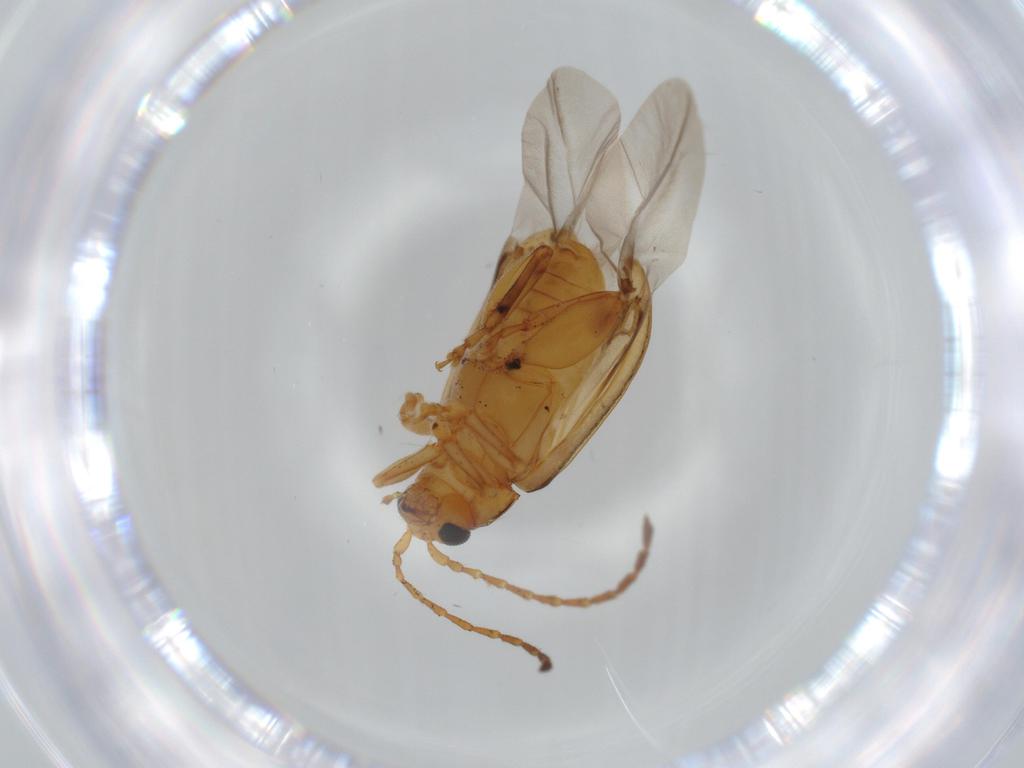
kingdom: Animalia
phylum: Arthropoda
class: Insecta
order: Coleoptera
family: Chrysomelidae
